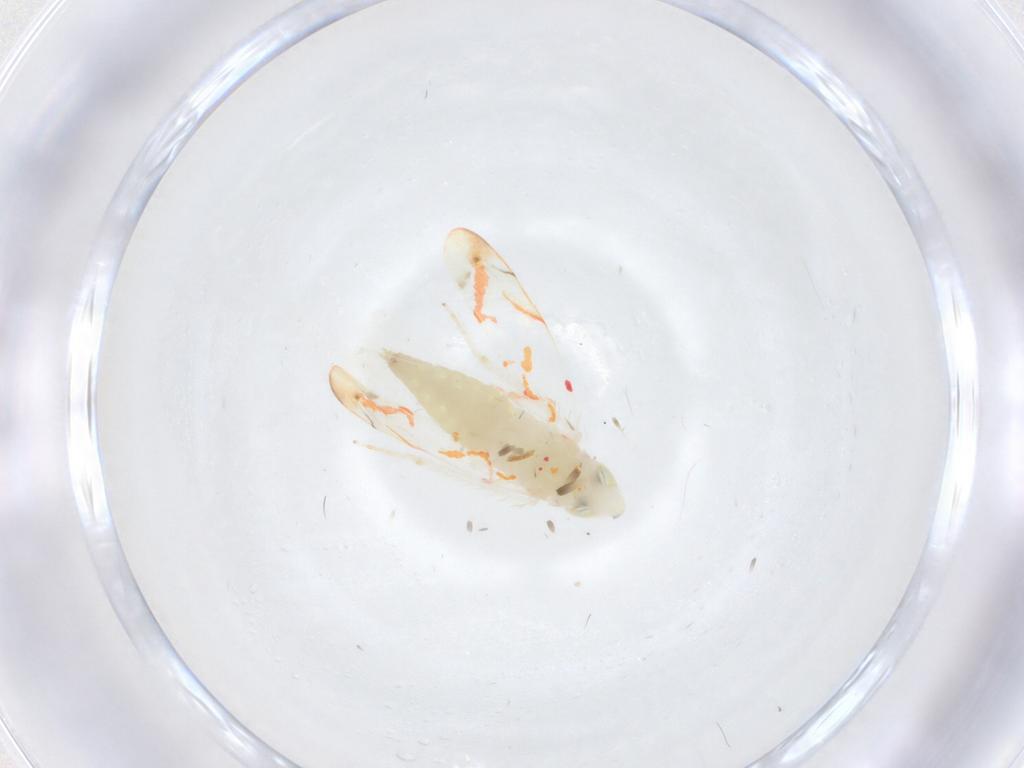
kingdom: Animalia
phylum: Arthropoda
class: Insecta
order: Hemiptera
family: Cicadellidae
